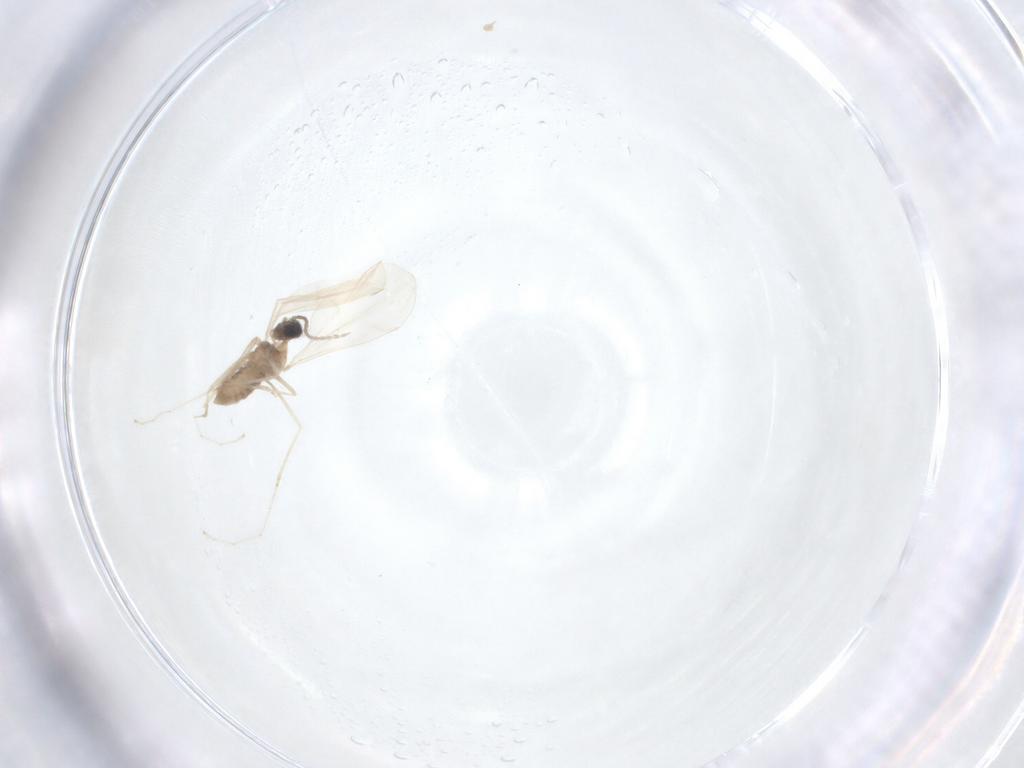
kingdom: Animalia
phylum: Arthropoda
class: Insecta
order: Diptera
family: Cecidomyiidae
